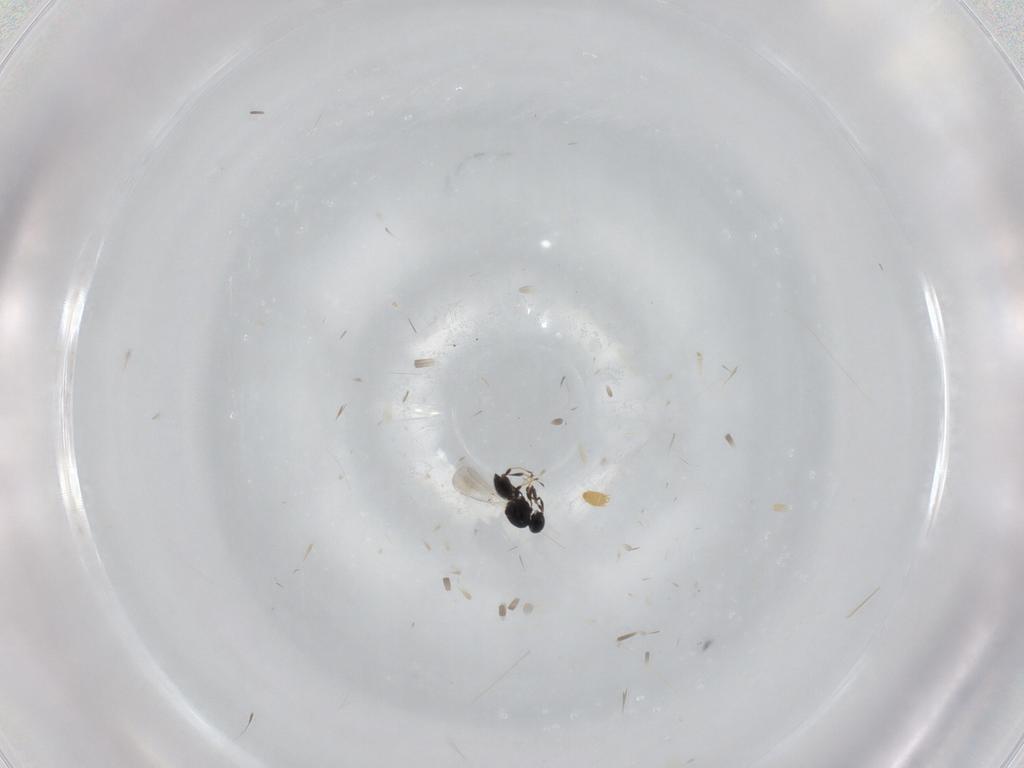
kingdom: Animalia
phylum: Arthropoda
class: Insecta
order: Hymenoptera
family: Platygastridae
